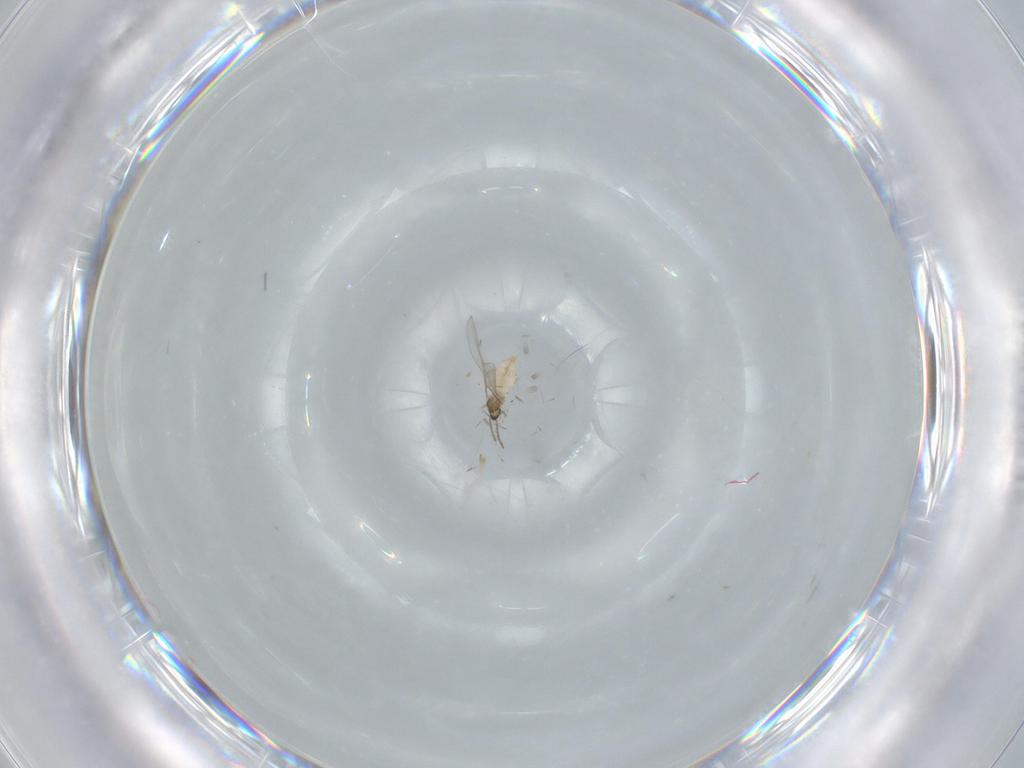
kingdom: Animalia
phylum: Arthropoda
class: Insecta
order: Diptera
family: Cecidomyiidae
